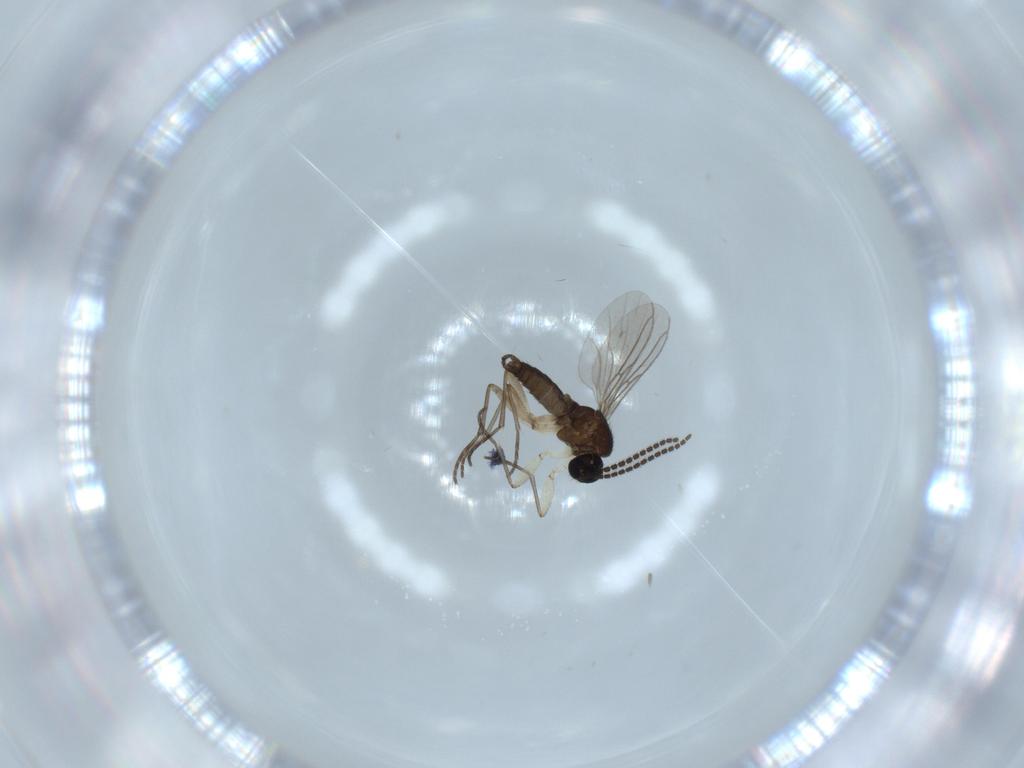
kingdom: Animalia
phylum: Arthropoda
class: Insecta
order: Diptera
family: Sciaridae
